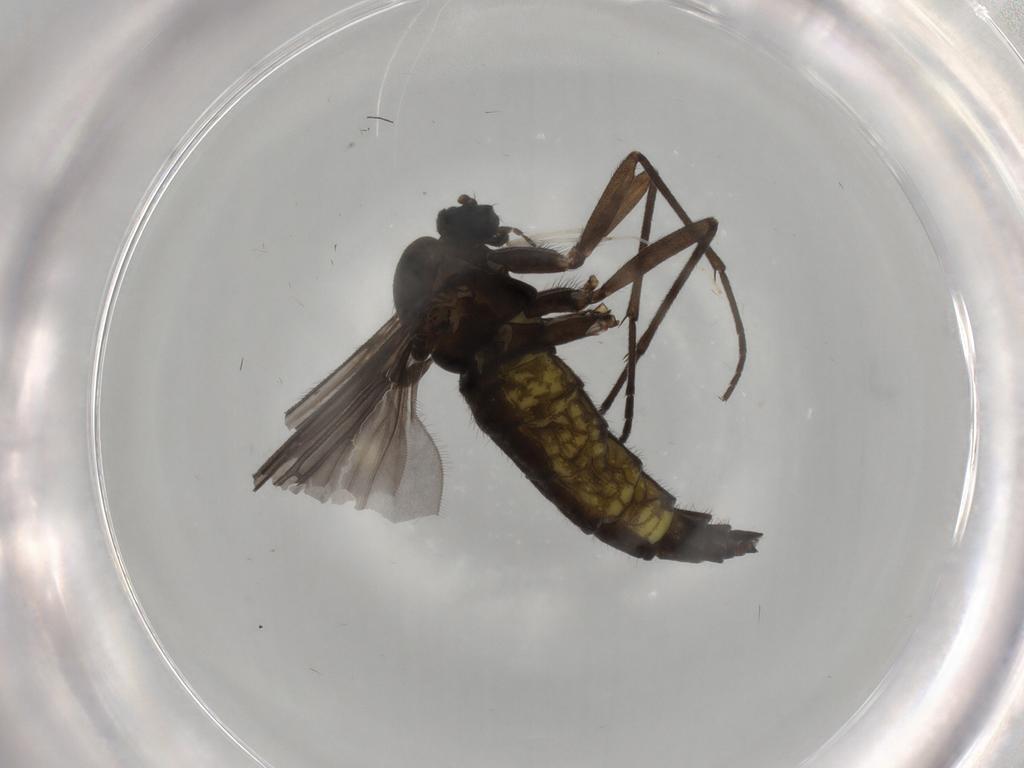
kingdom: Animalia
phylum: Arthropoda
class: Insecta
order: Diptera
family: Sciaridae
